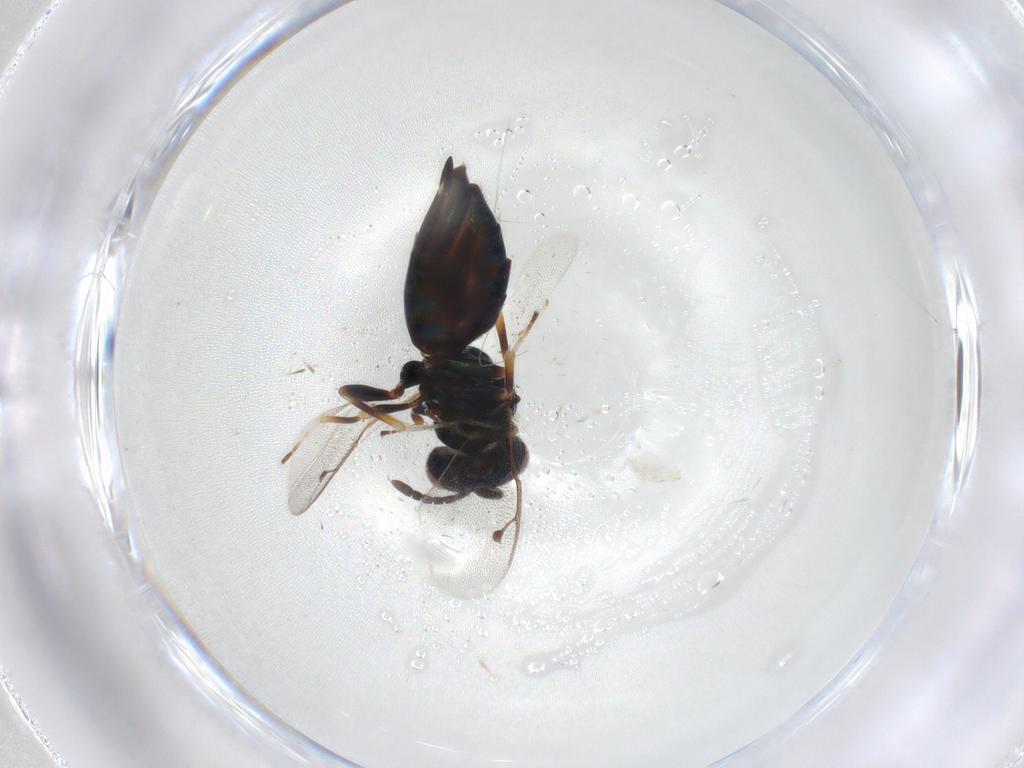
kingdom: Animalia
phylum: Arthropoda
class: Insecta
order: Hymenoptera
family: Pteromalidae
